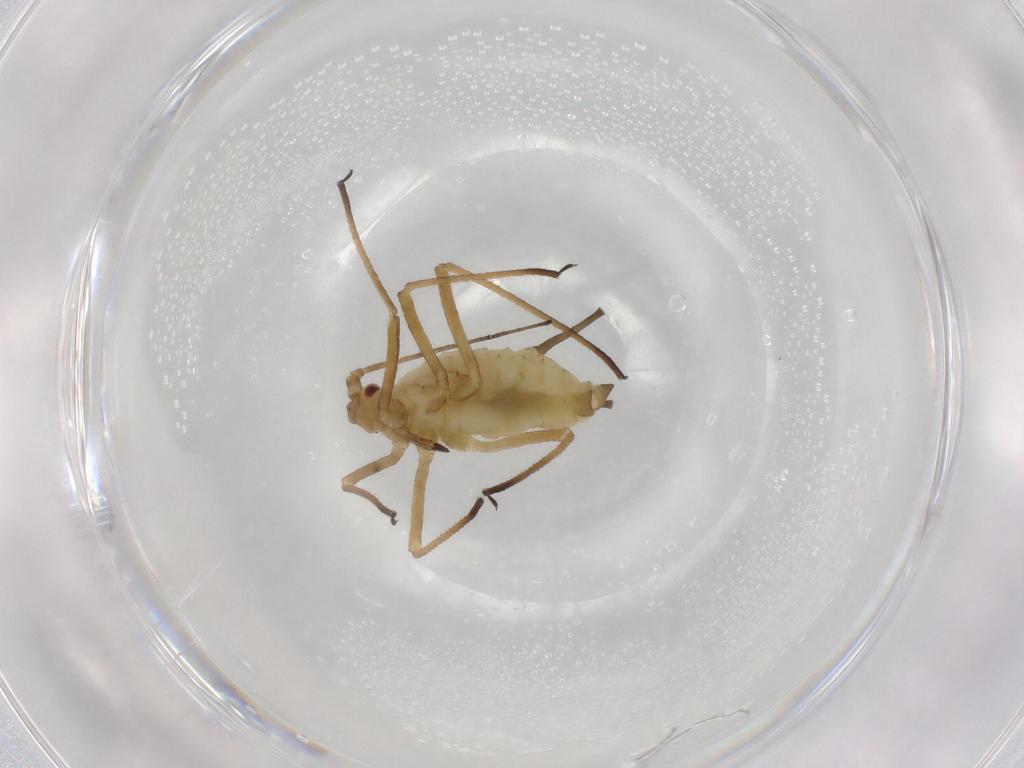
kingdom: Animalia
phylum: Arthropoda
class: Insecta
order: Hemiptera
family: Aphididae
